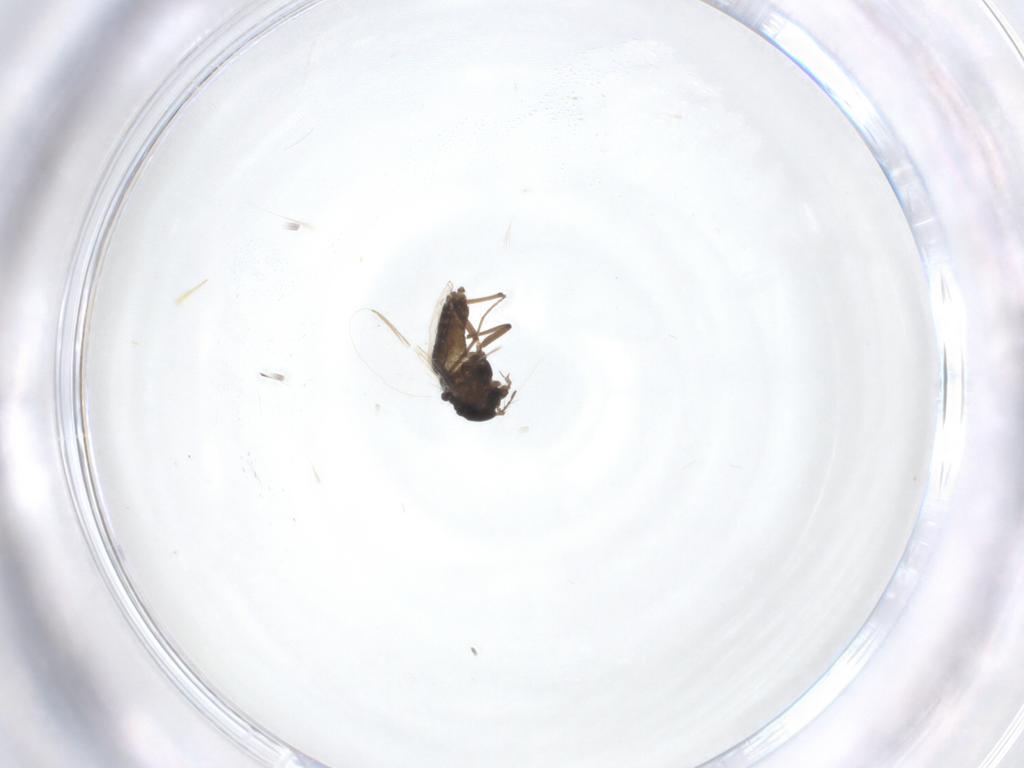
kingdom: Animalia
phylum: Arthropoda
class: Insecta
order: Diptera
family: Chironomidae
